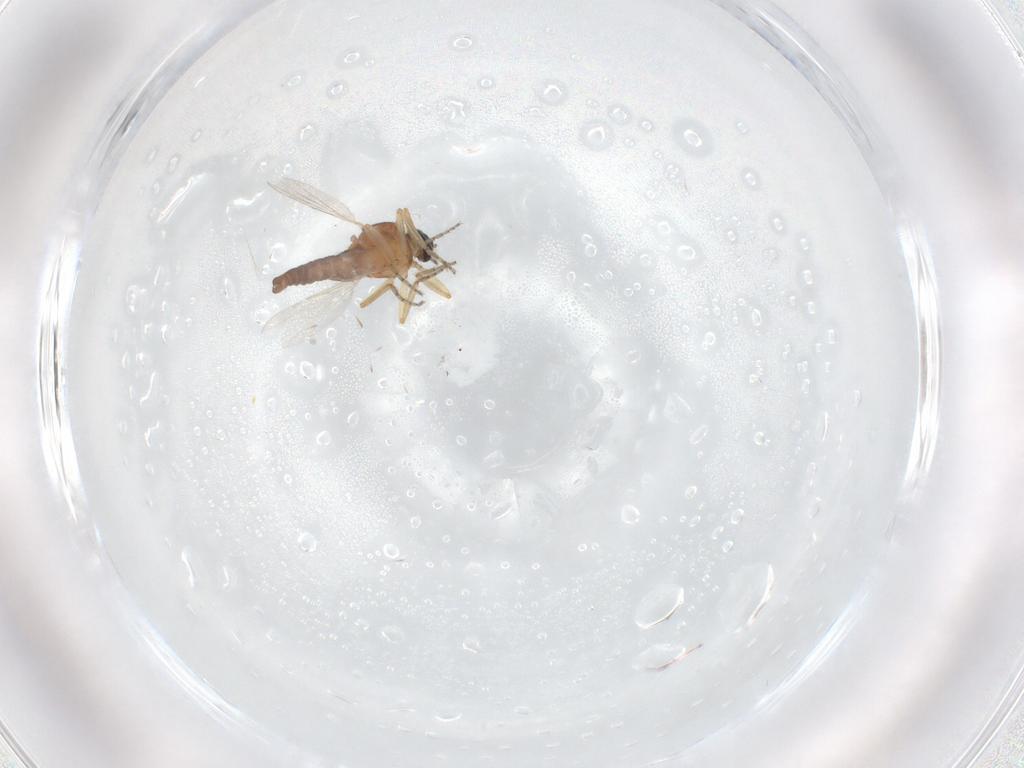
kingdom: Animalia
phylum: Arthropoda
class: Insecta
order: Diptera
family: Ceratopogonidae
